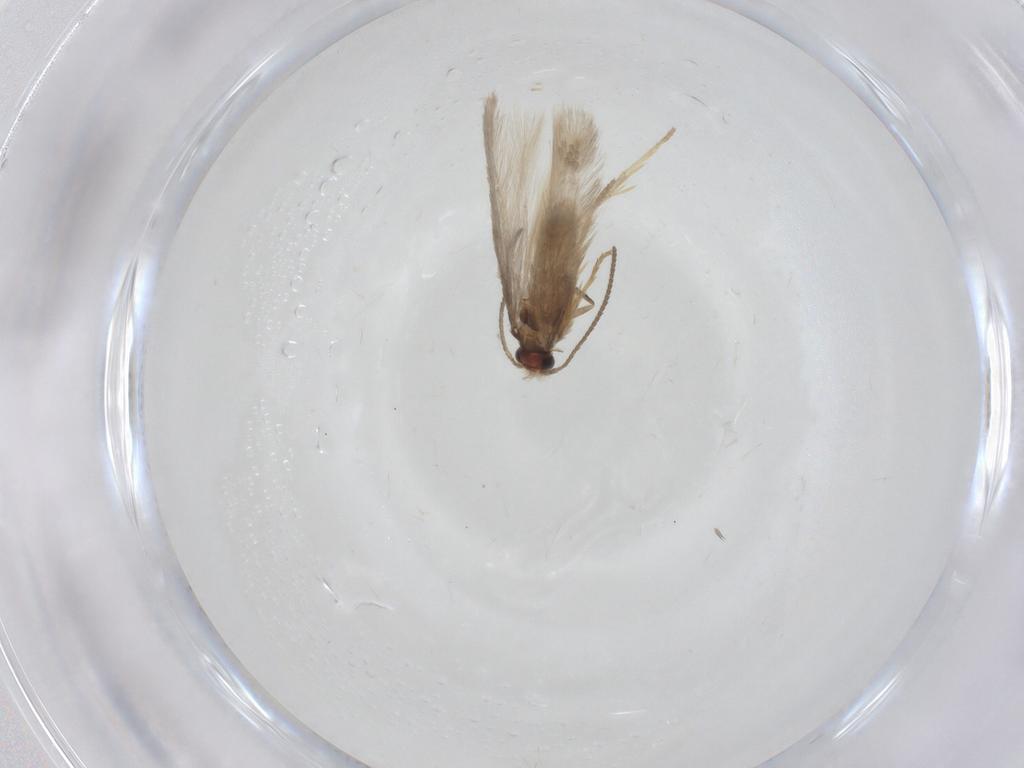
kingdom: Animalia
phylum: Arthropoda
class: Insecta
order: Lepidoptera
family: Nepticulidae
